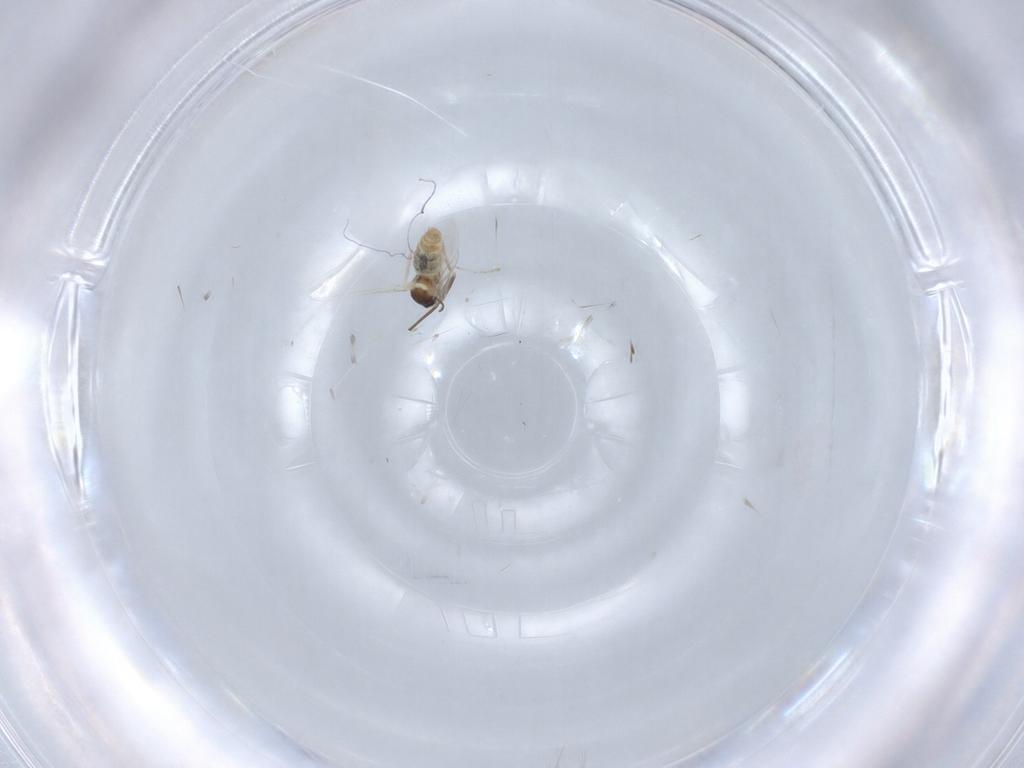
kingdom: Animalia
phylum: Arthropoda
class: Insecta
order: Diptera
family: Cecidomyiidae
